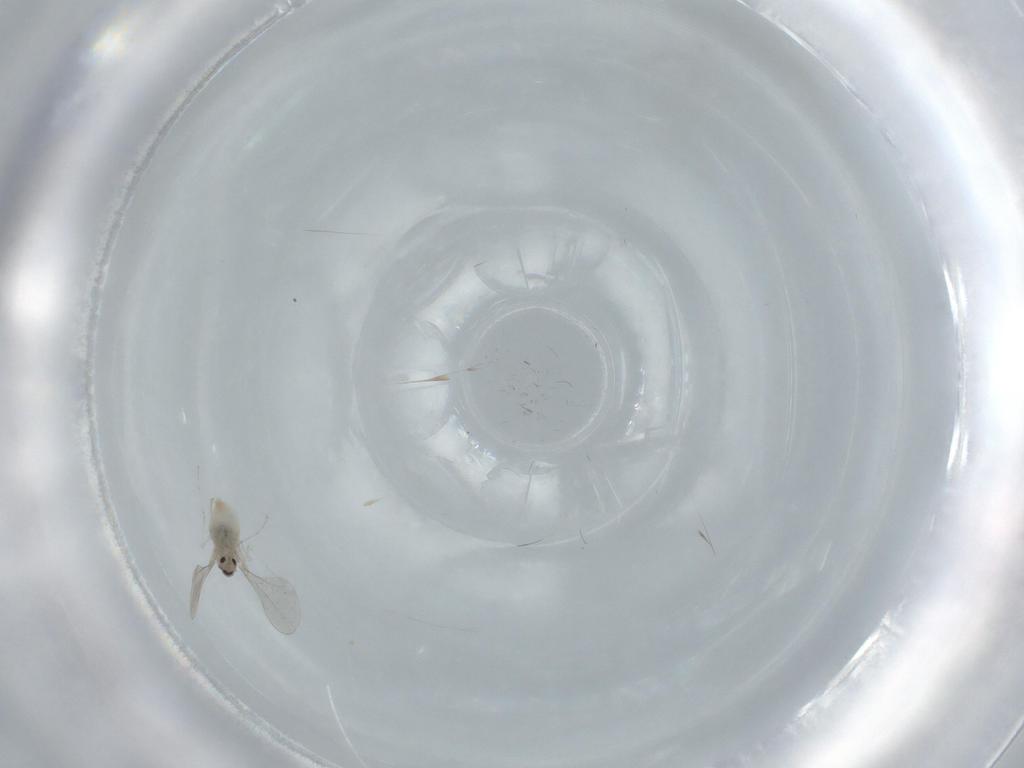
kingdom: Animalia
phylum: Arthropoda
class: Insecta
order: Diptera
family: Cecidomyiidae
